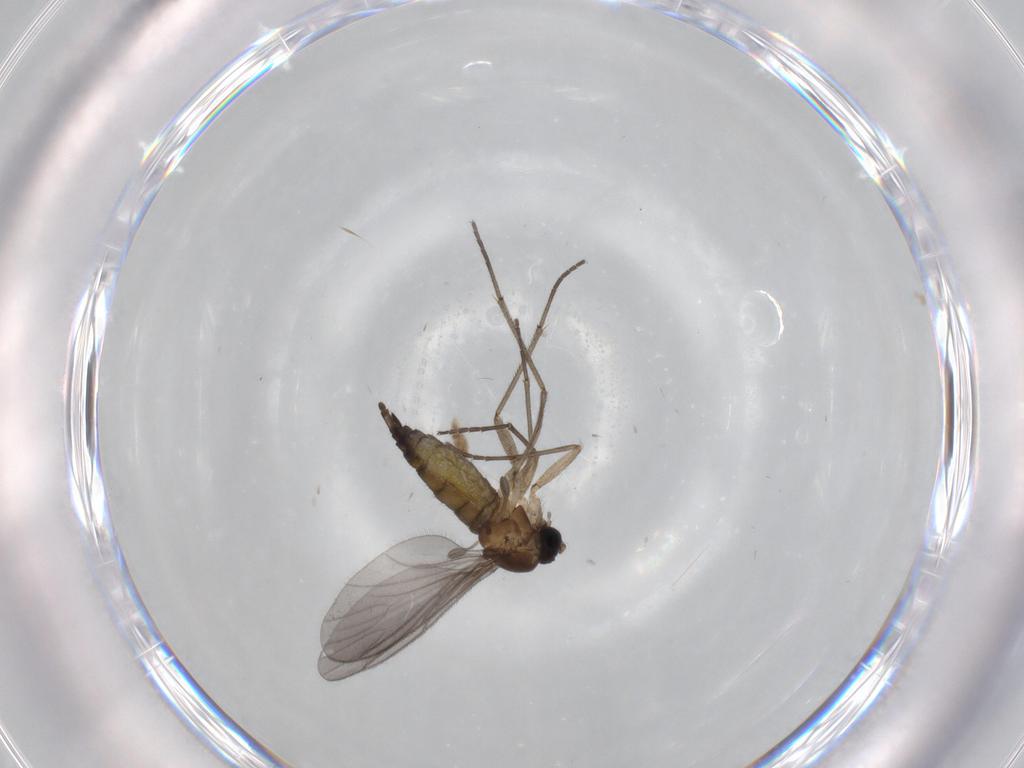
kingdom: Animalia
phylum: Arthropoda
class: Insecta
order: Diptera
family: Sciaridae
